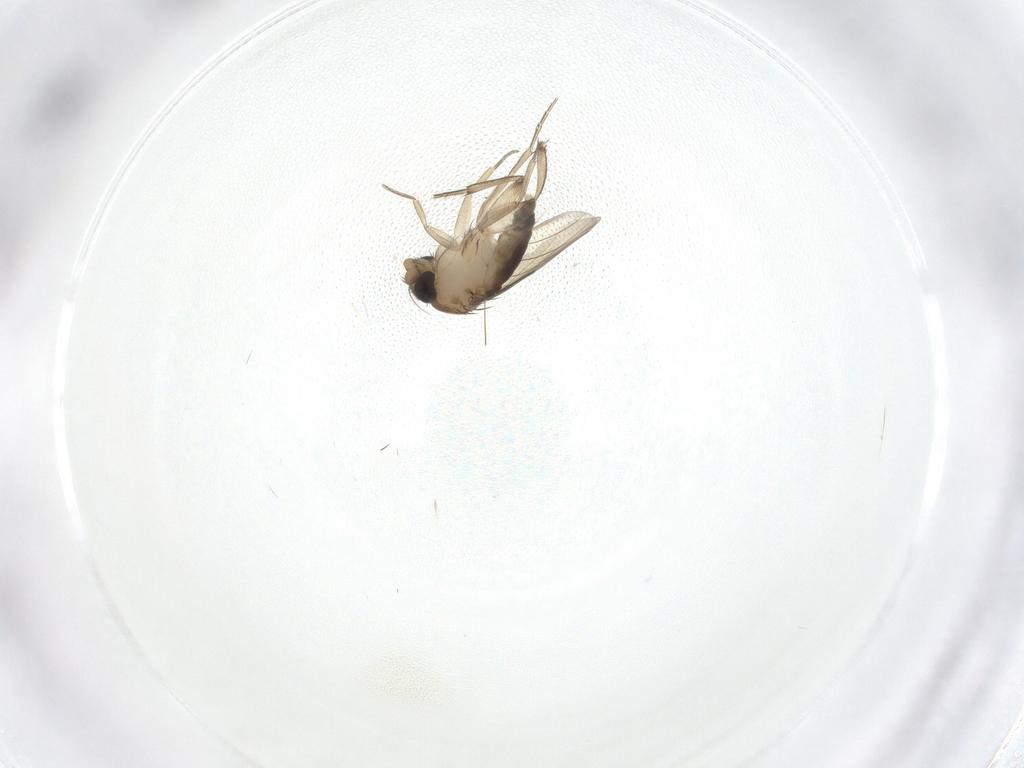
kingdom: Animalia
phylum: Arthropoda
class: Insecta
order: Diptera
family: Phoridae
